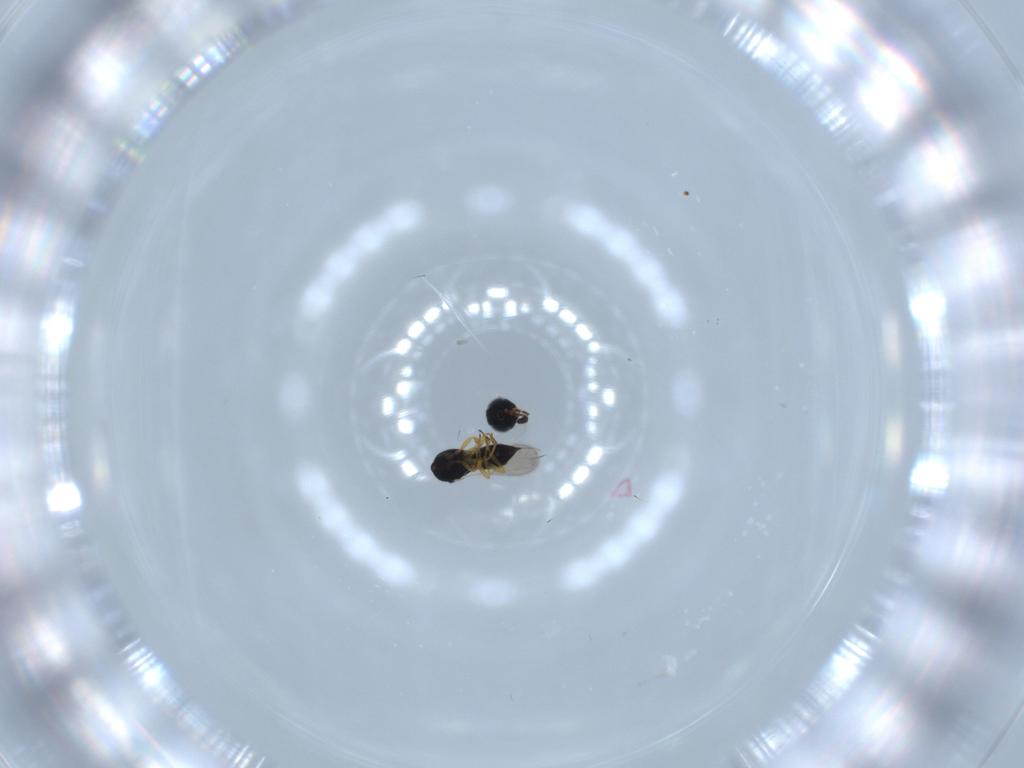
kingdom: Animalia
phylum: Arthropoda
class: Insecta
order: Hymenoptera
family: Scelionidae
